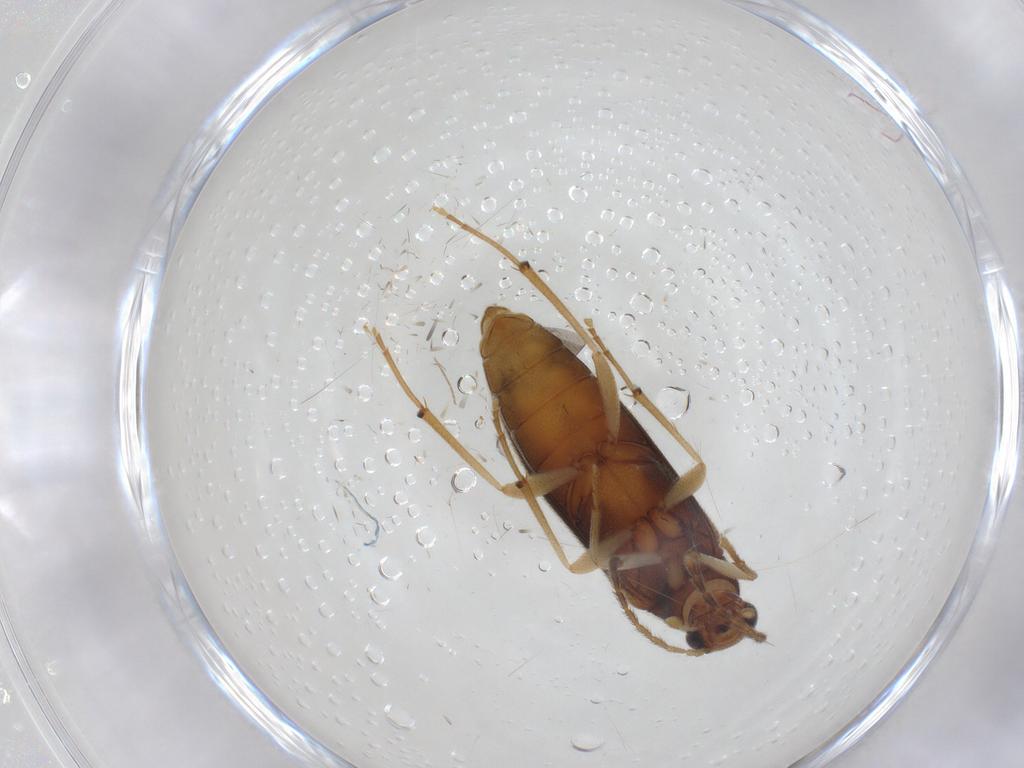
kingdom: Animalia
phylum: Arthropoda
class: Insecta
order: Coleoptera
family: Melandryidae
